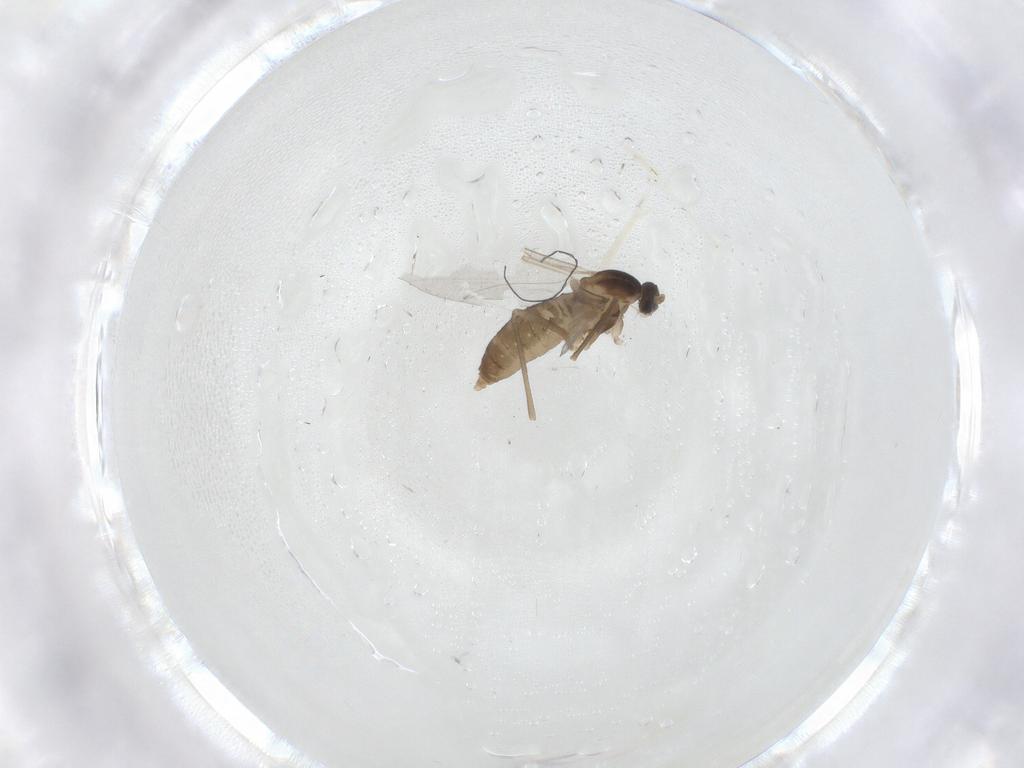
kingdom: Animalia
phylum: Arthropoda
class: Insecta
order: Diptera
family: Cecidomyiidae
